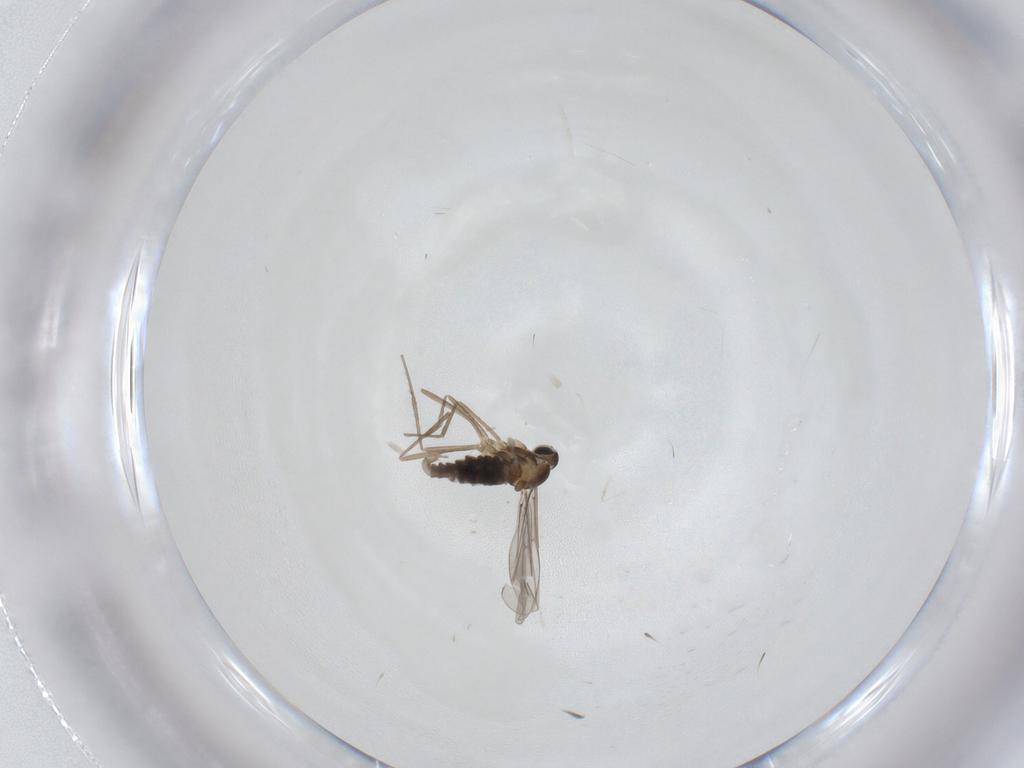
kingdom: Animalia
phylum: Arthropoda
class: Insecta
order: Diptera
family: Cecidomyiidae
